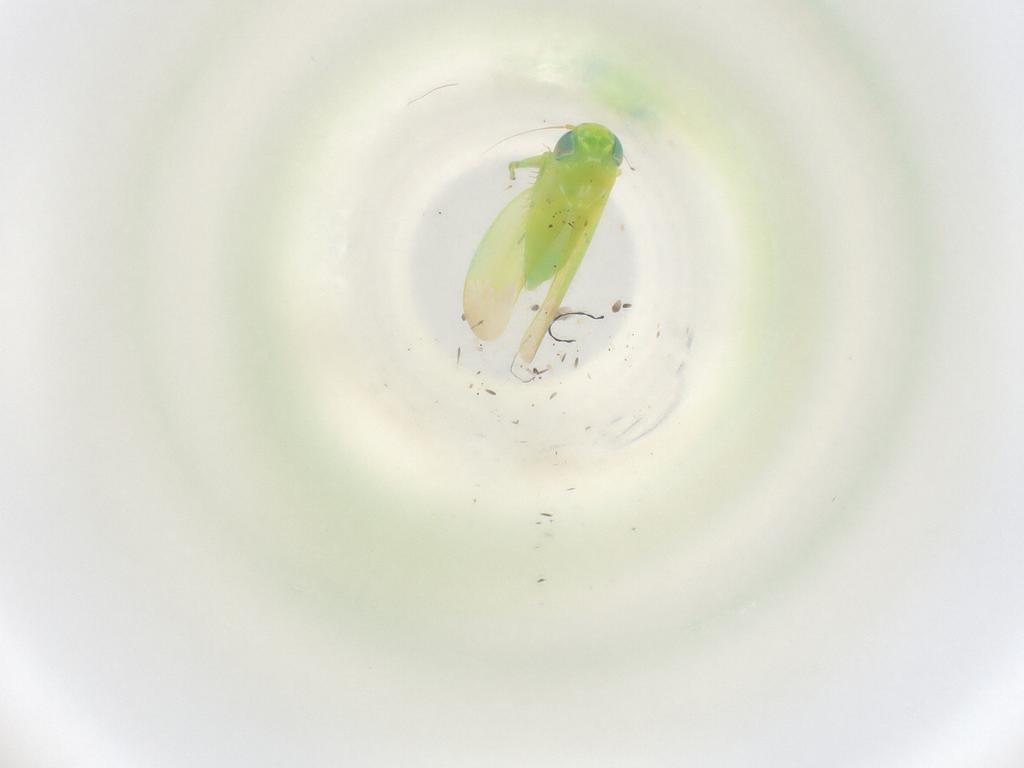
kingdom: Animalia
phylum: Arthropoda
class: Insecta
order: Hemiptera
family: Cicadellidae
